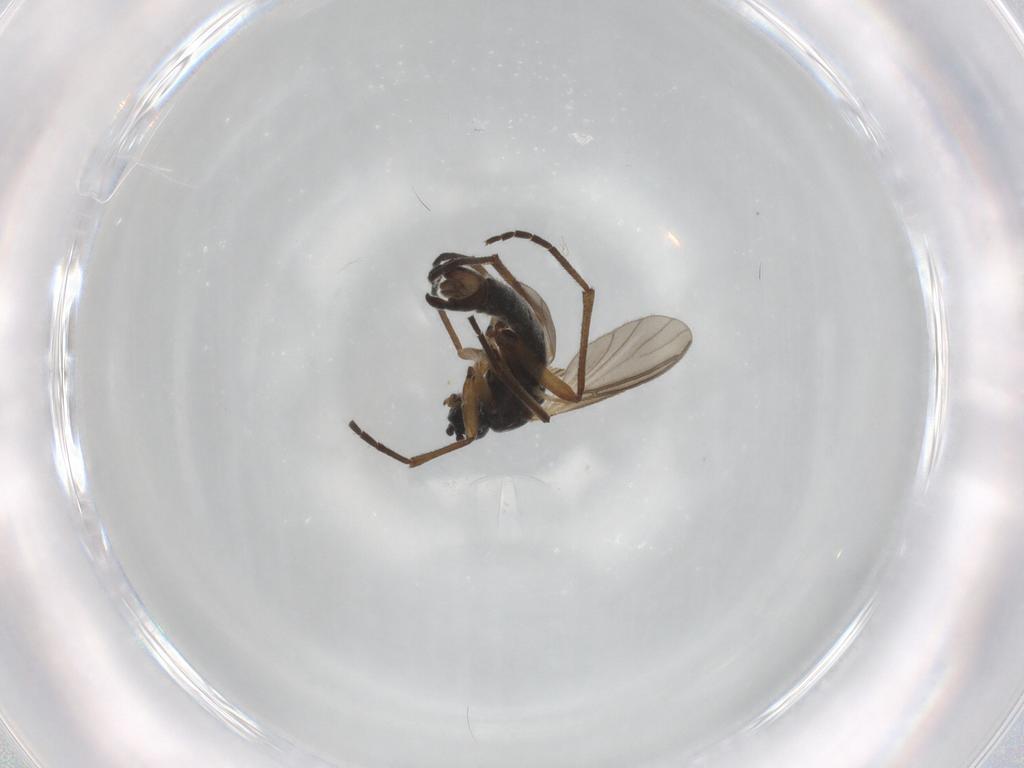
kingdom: Animalia
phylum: Arthropoda
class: Insecta
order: Diptera
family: Sciaridae
